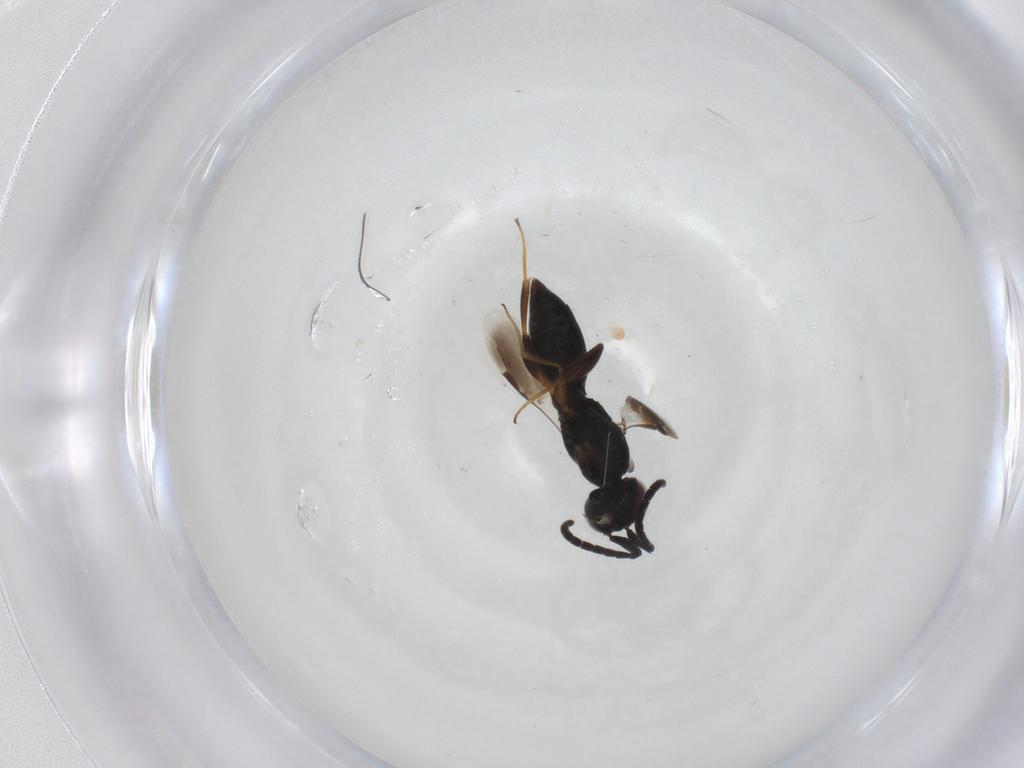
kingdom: Animalia
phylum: Arthropoda
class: Insecta
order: Hymenoptera
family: Megaspilidae
